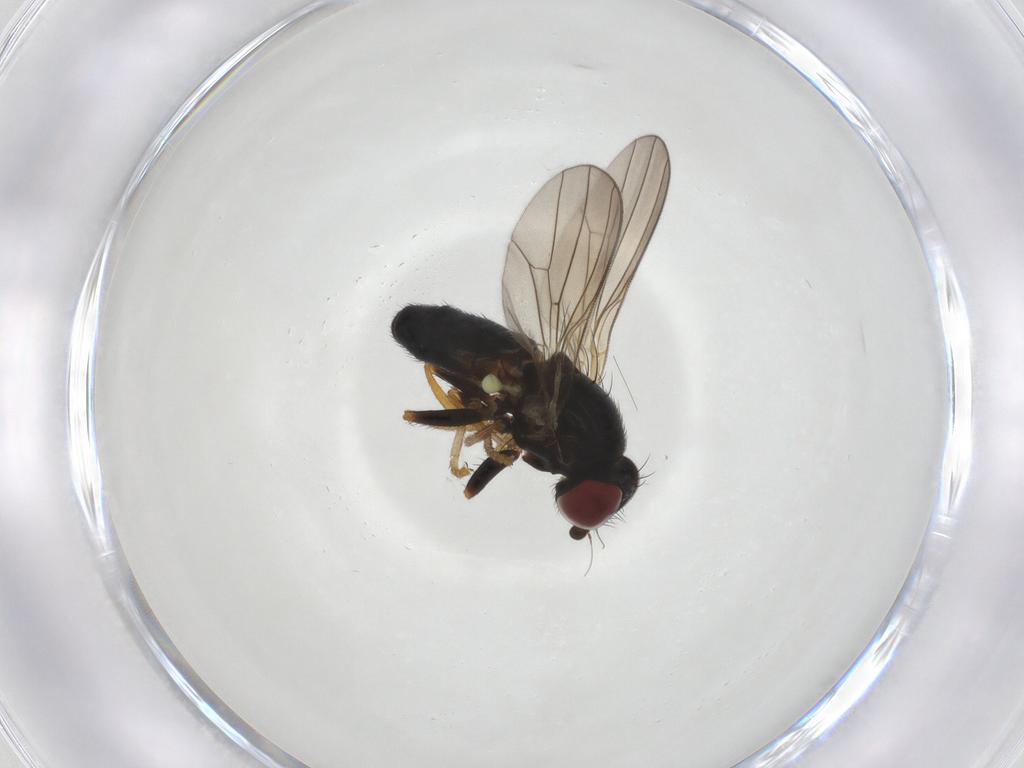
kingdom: Animalia
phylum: Arthropoda
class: Insecta
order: Diptera
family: Chamaemyiidae
